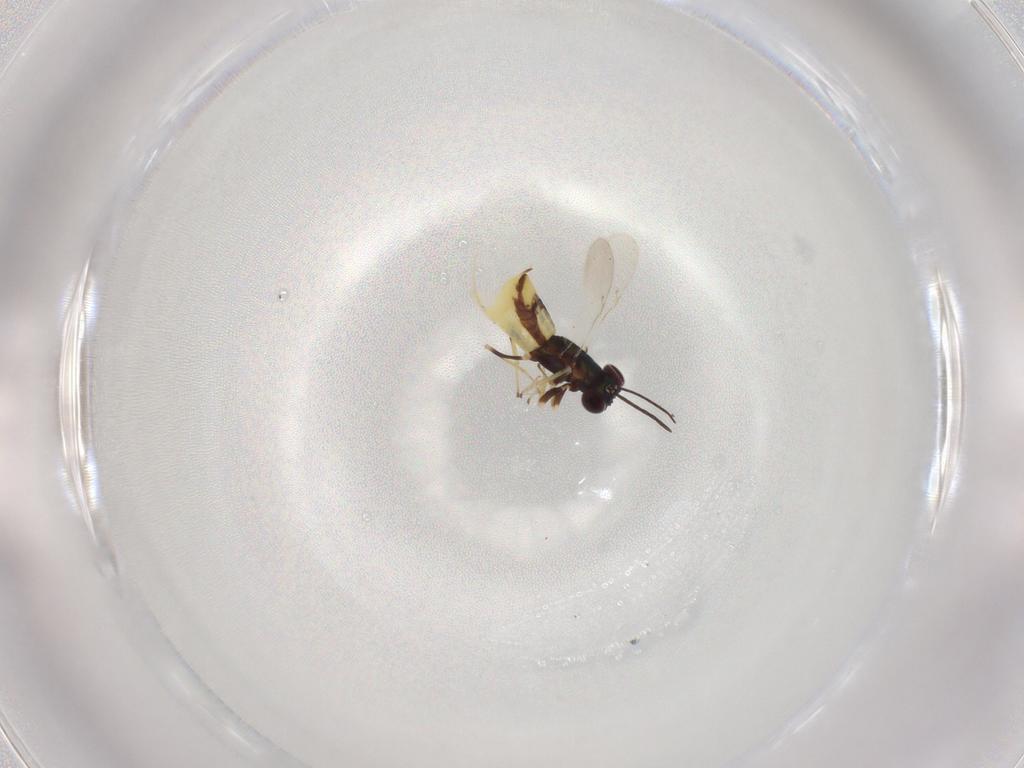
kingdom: Animalia
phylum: Arthropoda
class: Insecta
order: Hymenoptera
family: Encyrtidae
